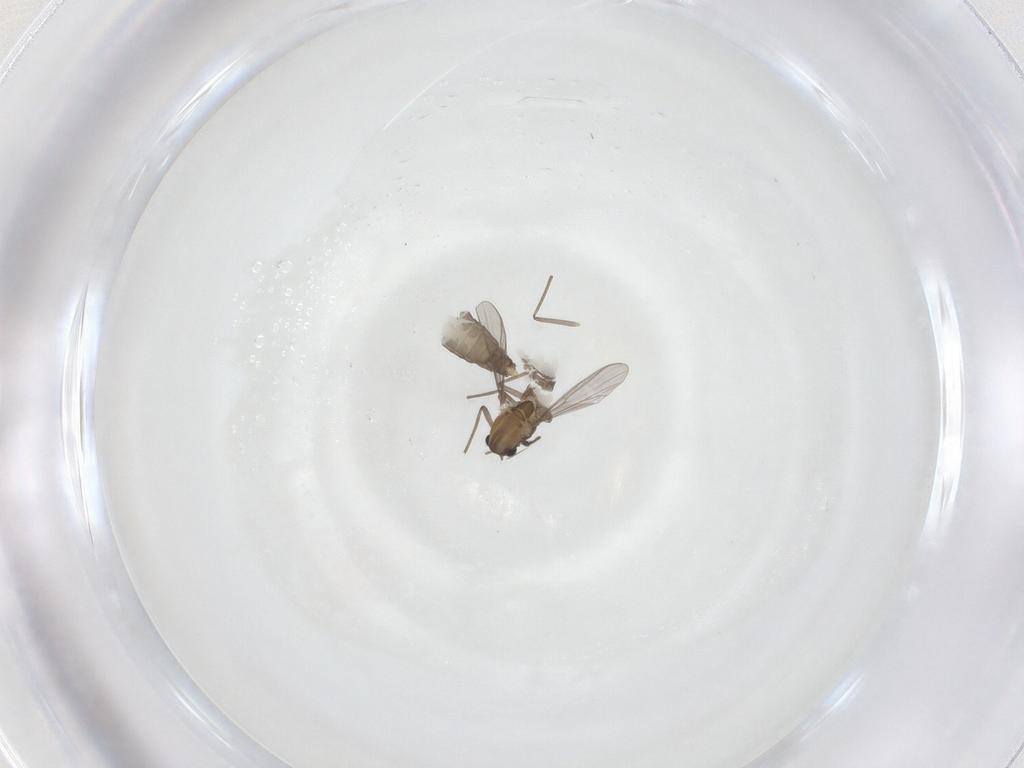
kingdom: Animalia
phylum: Arthropoda
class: Insecta
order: Diptera
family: Chironomidae
